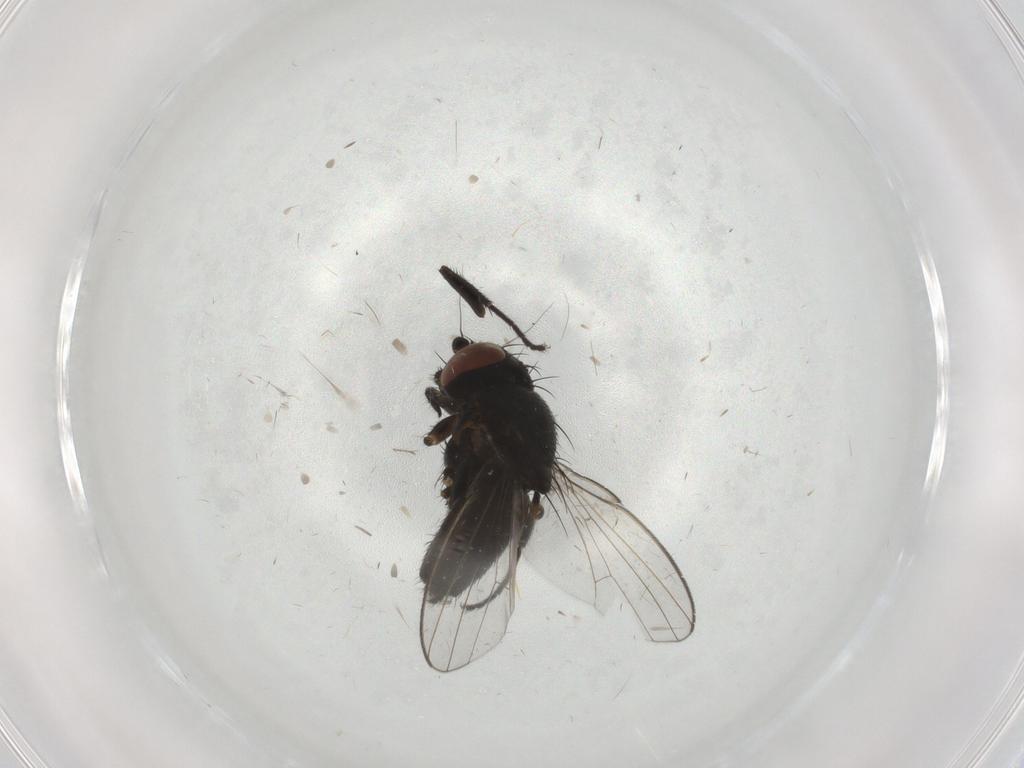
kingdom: Animalia
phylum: Arthropoda
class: Insecta
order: Diptera
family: Milichiidae
